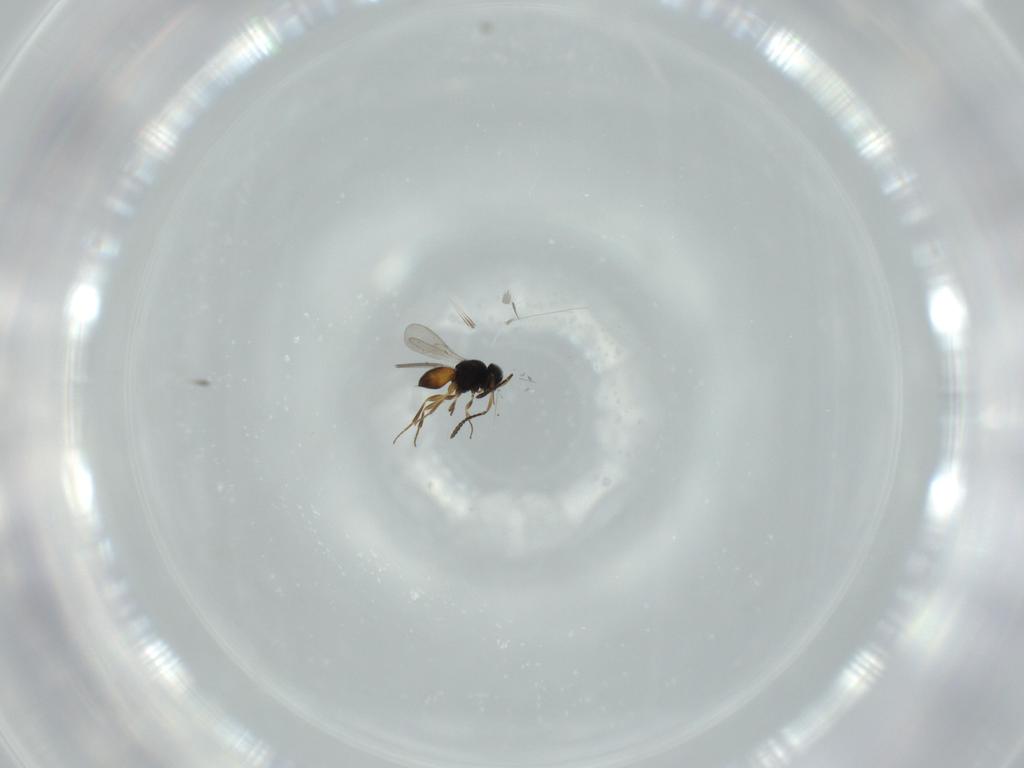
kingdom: Animalia
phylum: Arthropoda
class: Insecta
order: Hymenoptera
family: Scelionidae
